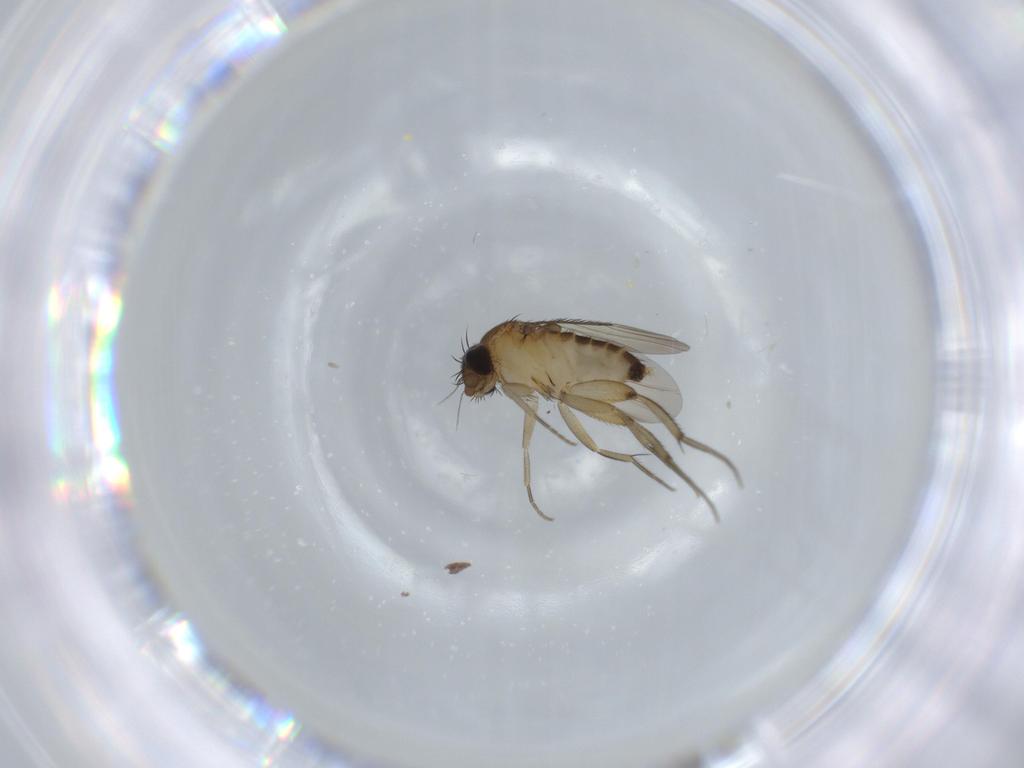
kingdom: Animalia
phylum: Arthropoda
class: Insecta
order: Diptera
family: Phoridae
